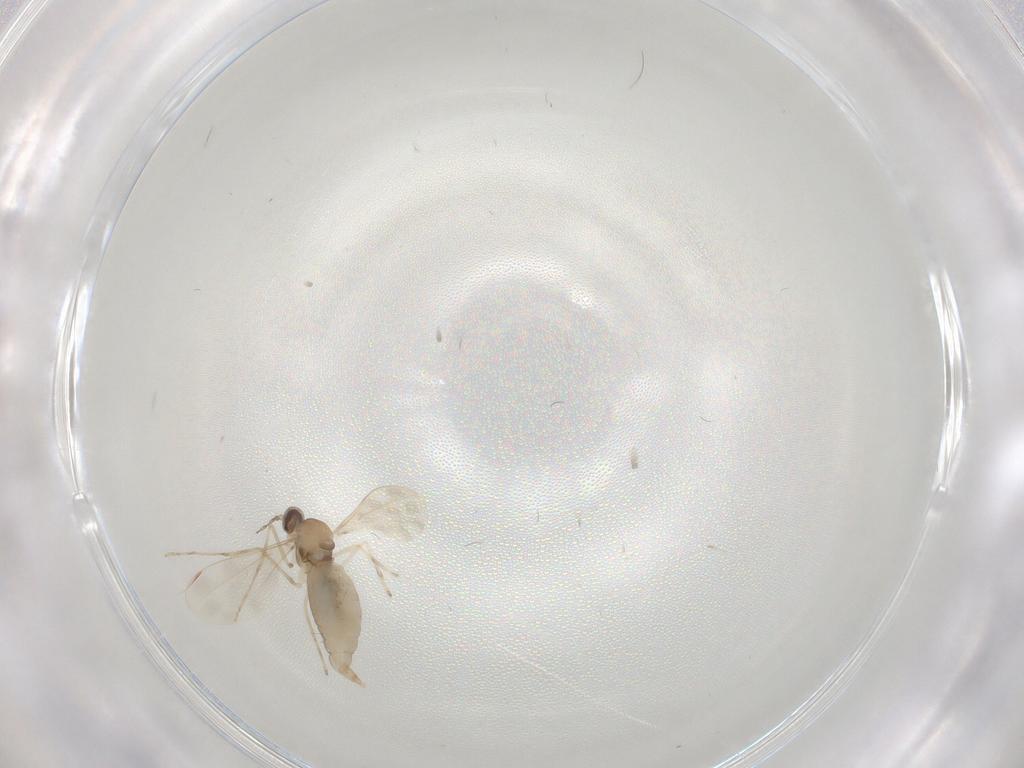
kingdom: Animalia
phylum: Arthropoda
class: Insecta
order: Diptera
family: Cecidomyiidae
